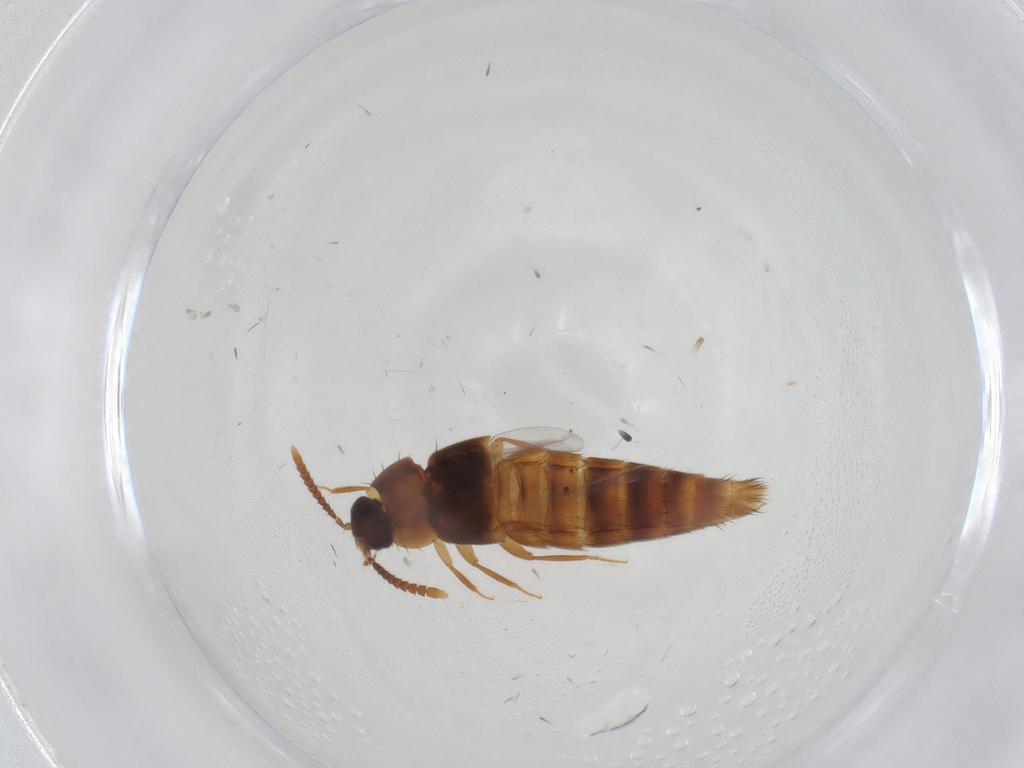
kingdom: Animalia
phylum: Arthropoda
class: Insecta
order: Coleoptera
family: Staphylinidae
